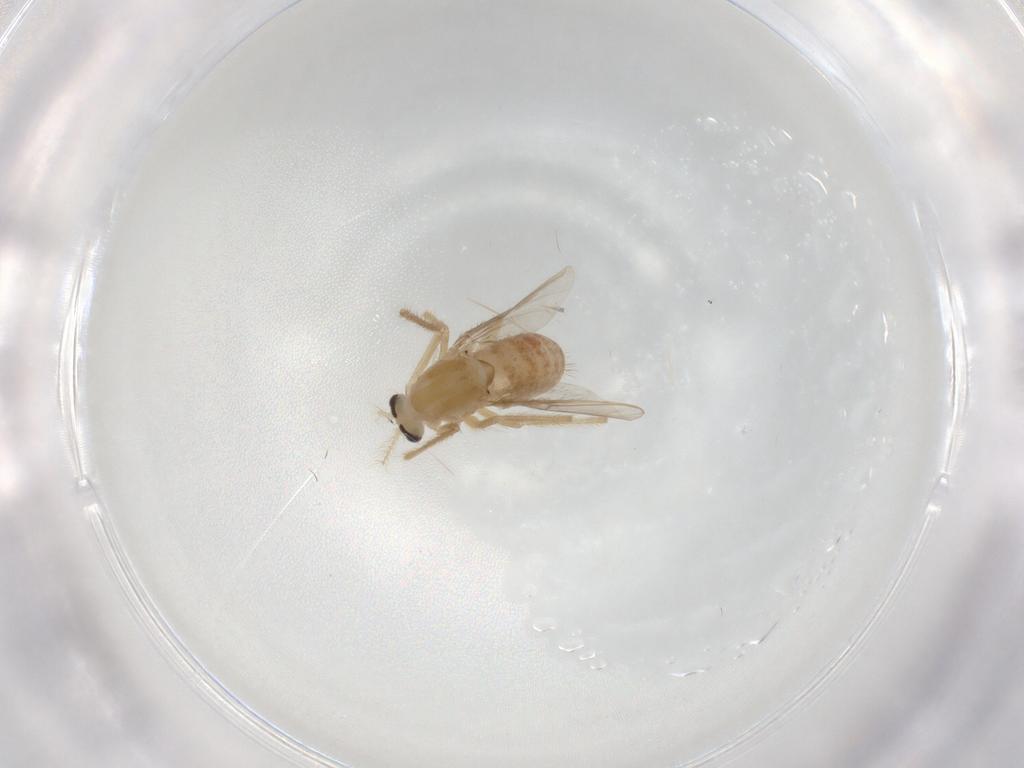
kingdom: Animalia
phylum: Arthropoda
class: Insecta
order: Diptera
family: Chironomidae
